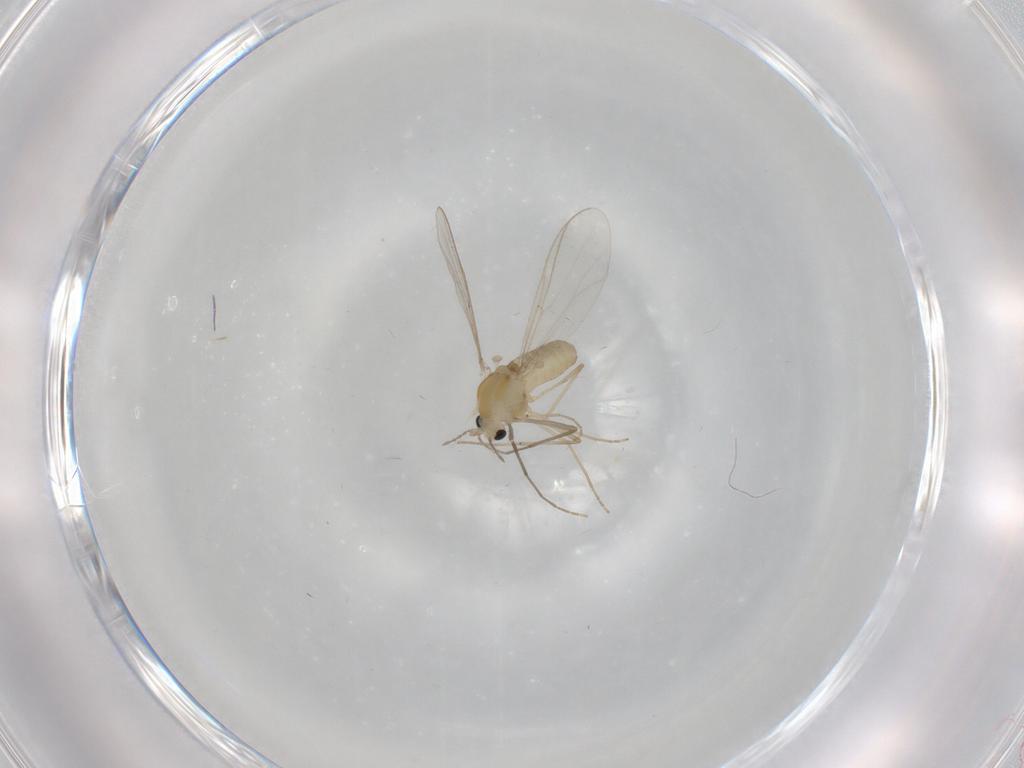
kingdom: Animalia
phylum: Arthropoda
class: Insecta
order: Diptera
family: Chironomidae
